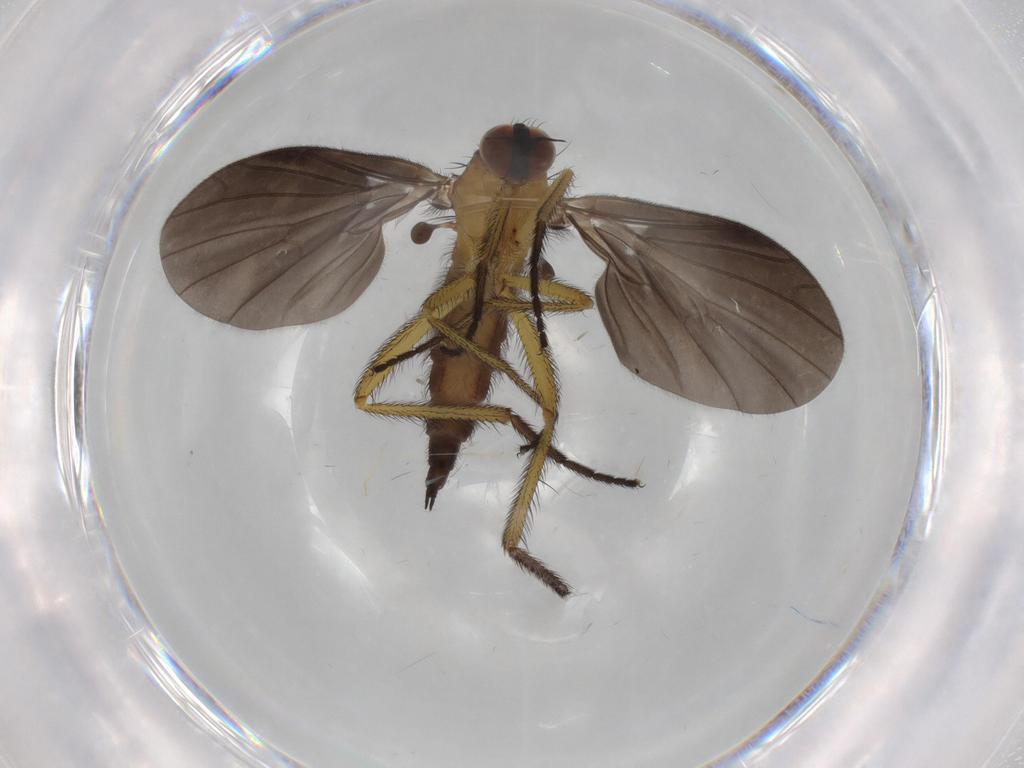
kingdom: Animalia
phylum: Arthropoda
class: Insecta
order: Diptera
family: Empididae
